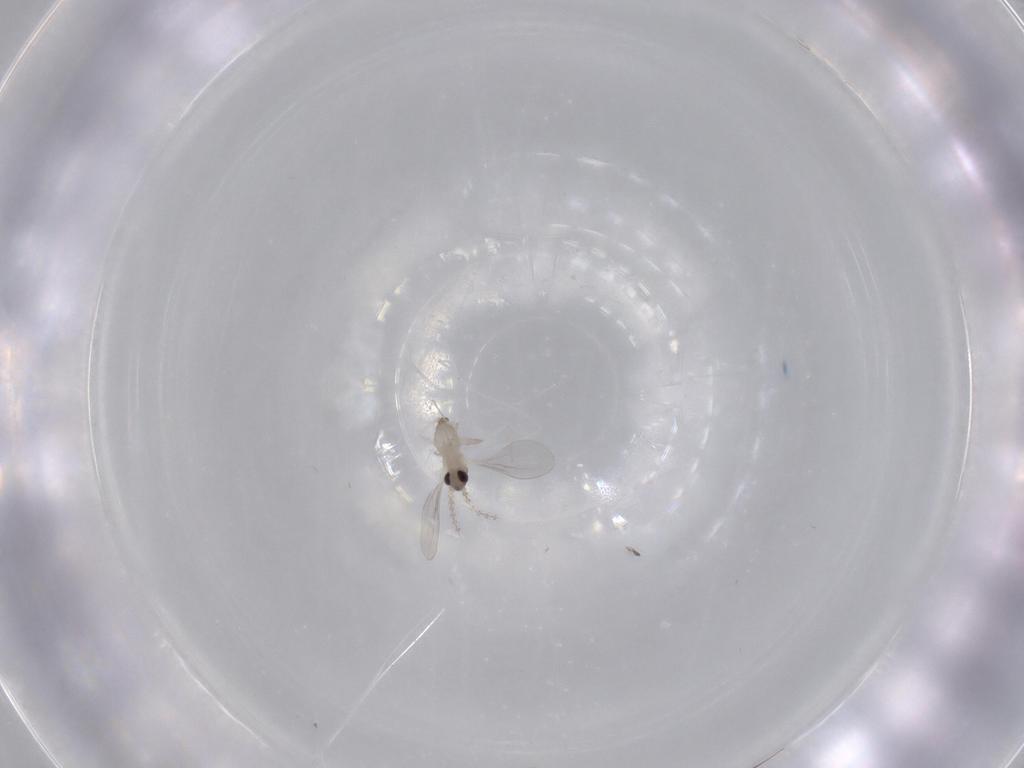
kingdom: Animalia
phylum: Arthropoda
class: Insecta
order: Diptera
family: Cecidomyiidae
